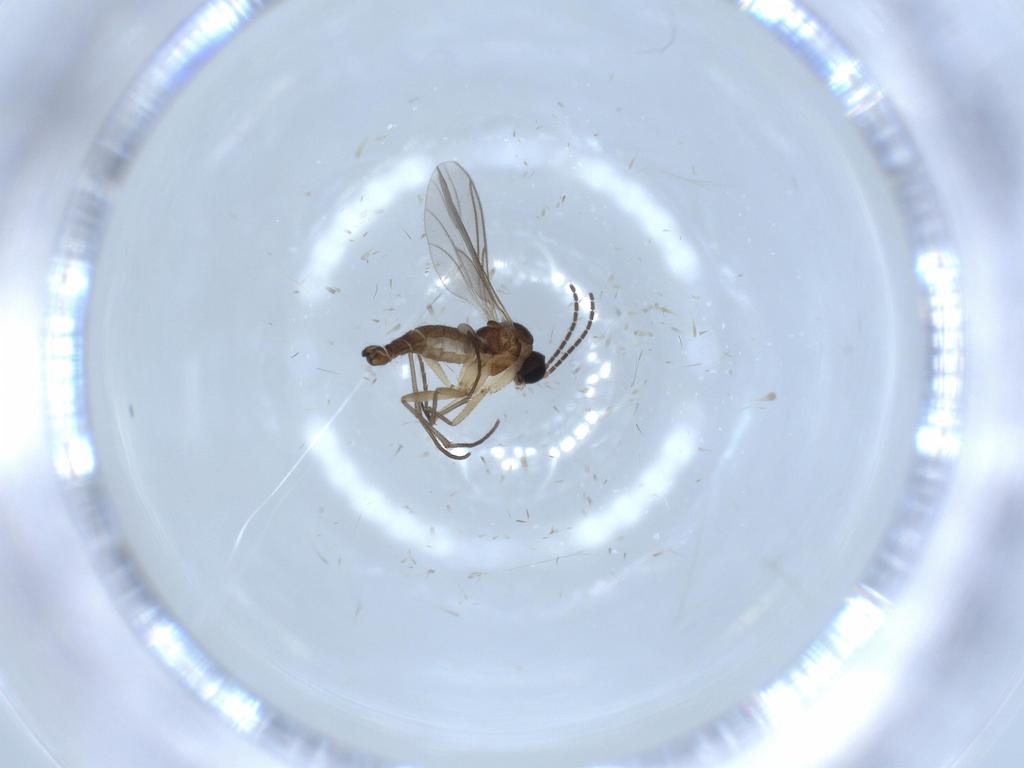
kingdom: Animalia
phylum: Arthropoda
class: Insecta
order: Diptera
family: Sciaridae
